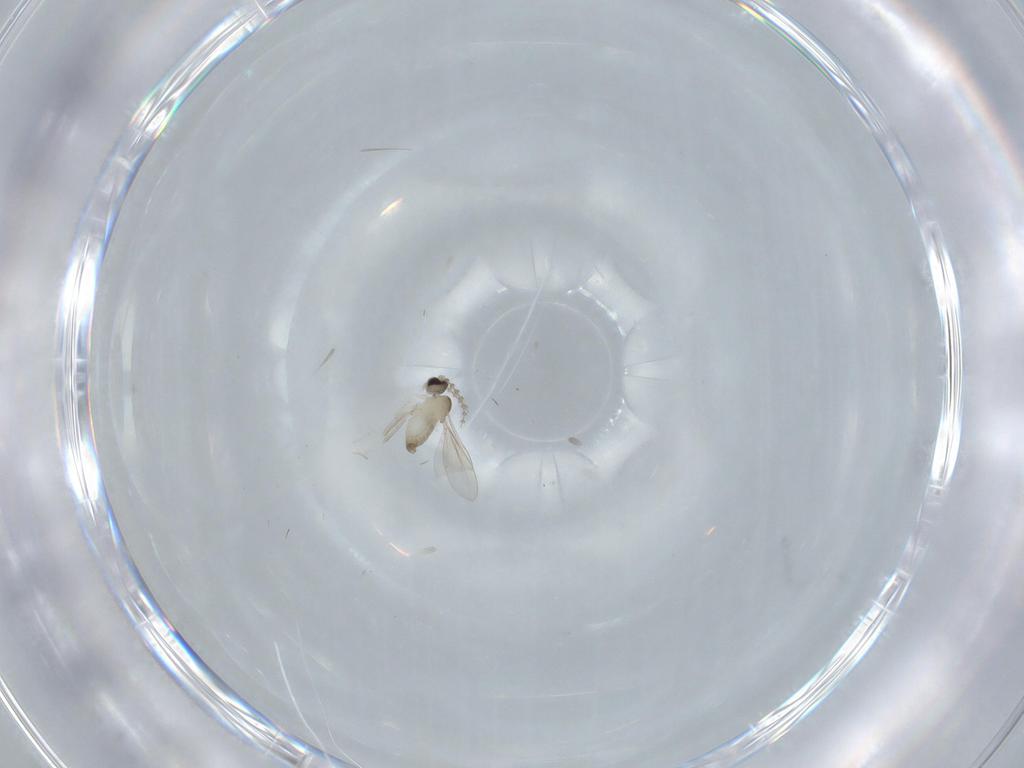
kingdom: Animalia
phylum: Arthropoda
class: Insecta
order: Diptera
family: Cecidomyiidae
